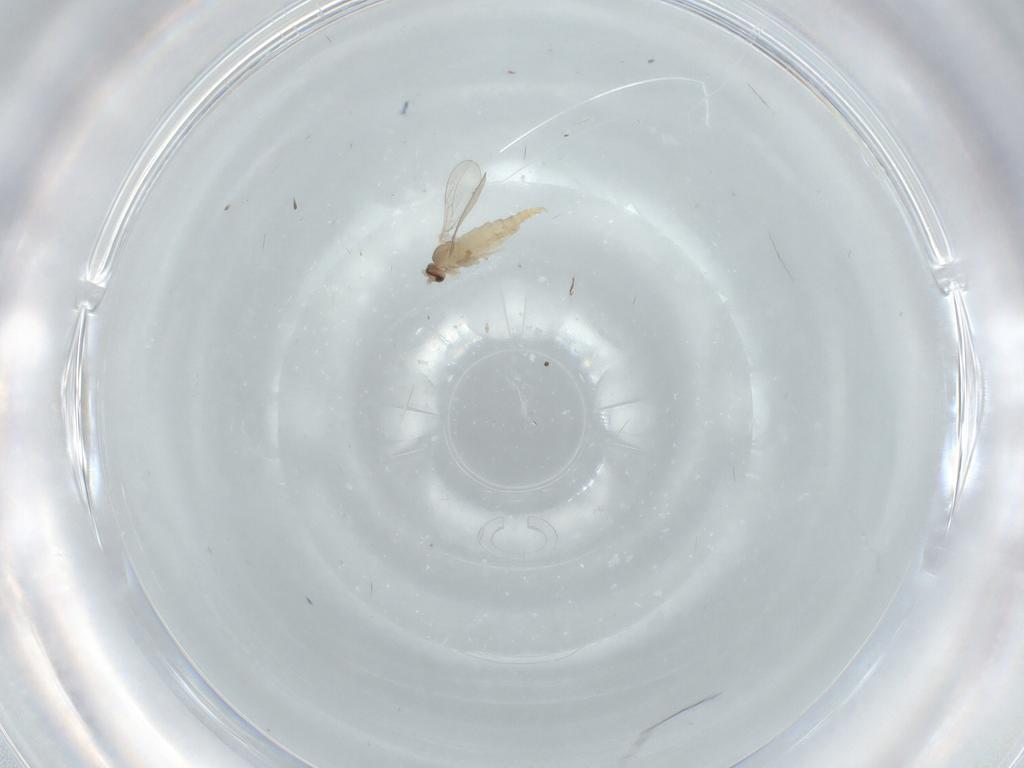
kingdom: Animalia
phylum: Arthropoda
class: Insecta
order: Diptera
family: Cecidomyiidae
